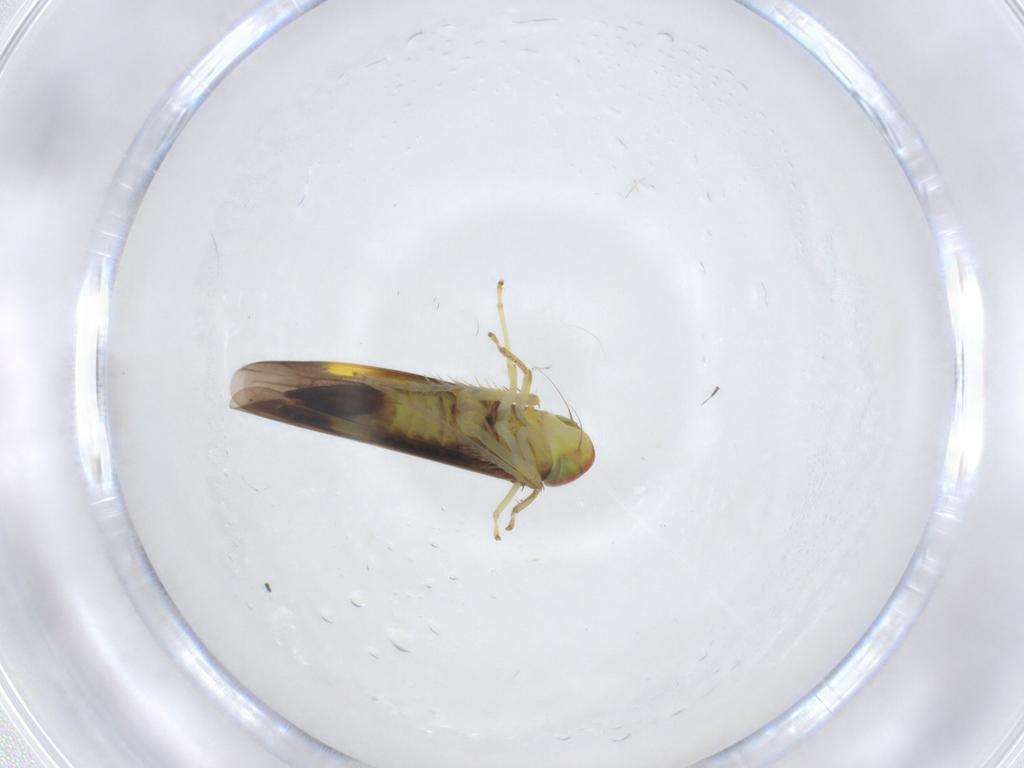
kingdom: Animalia
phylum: Arthropoda
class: Insecta
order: Hemiptera
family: Cicadellidae
